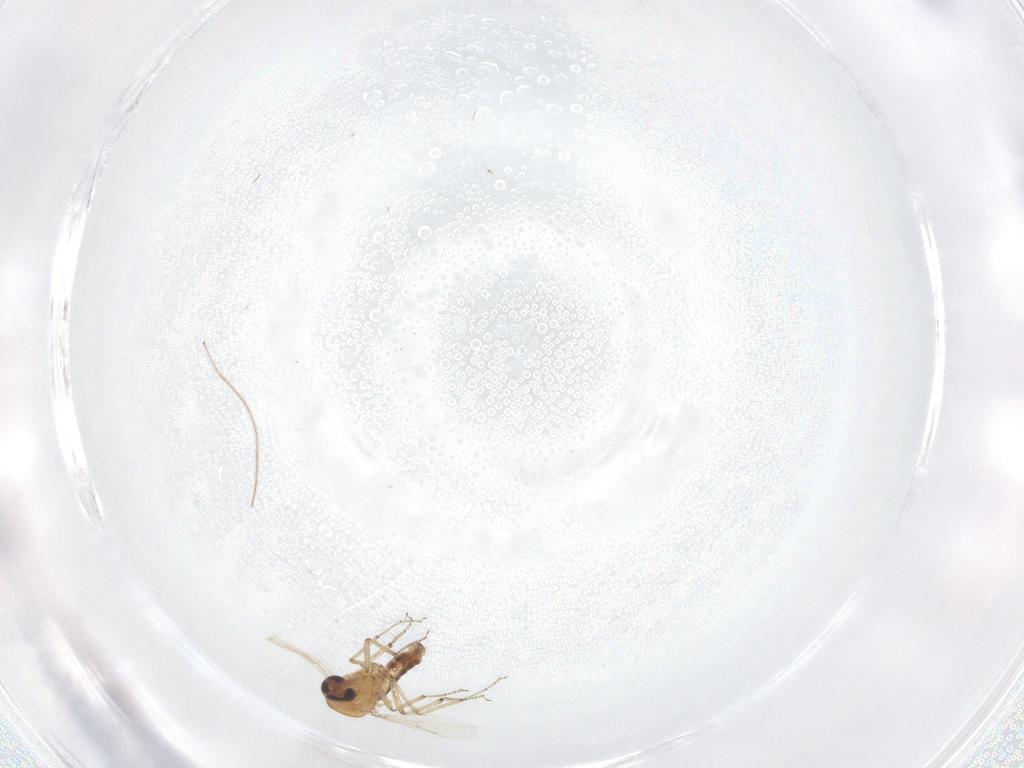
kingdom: Animalia
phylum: Arthropoda
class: Insecta
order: Diptera
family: Ceratopogonidae
